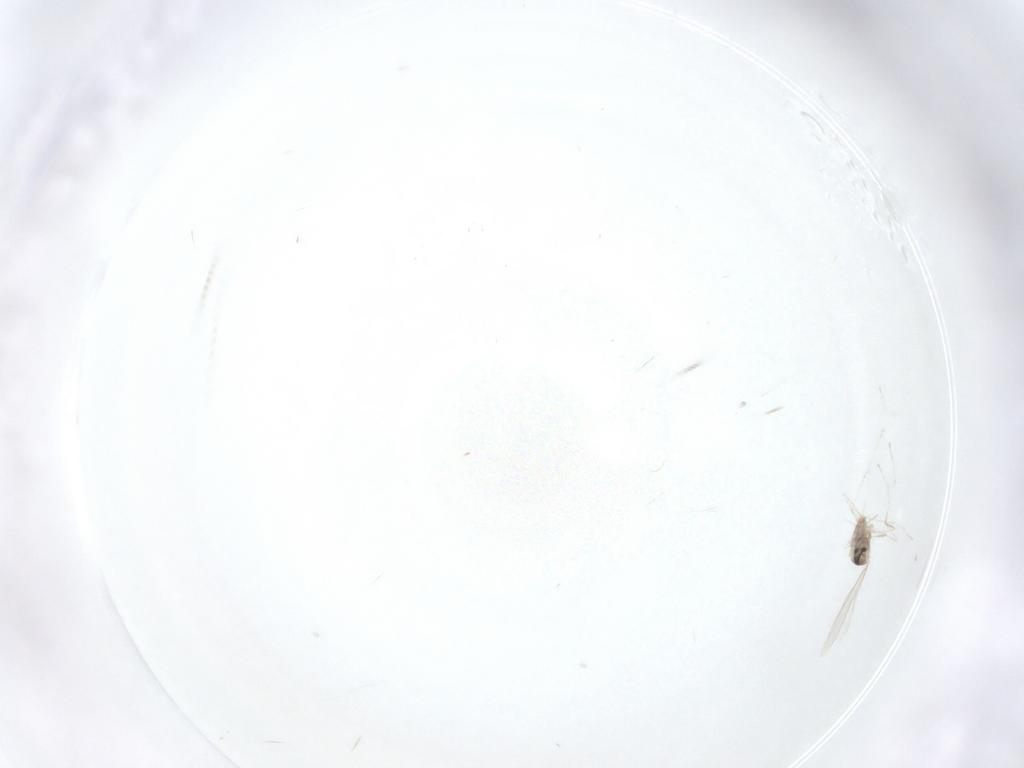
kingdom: Animalia
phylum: Arthropoda
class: Insecta
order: Diptera
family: Cecidomyiidae
